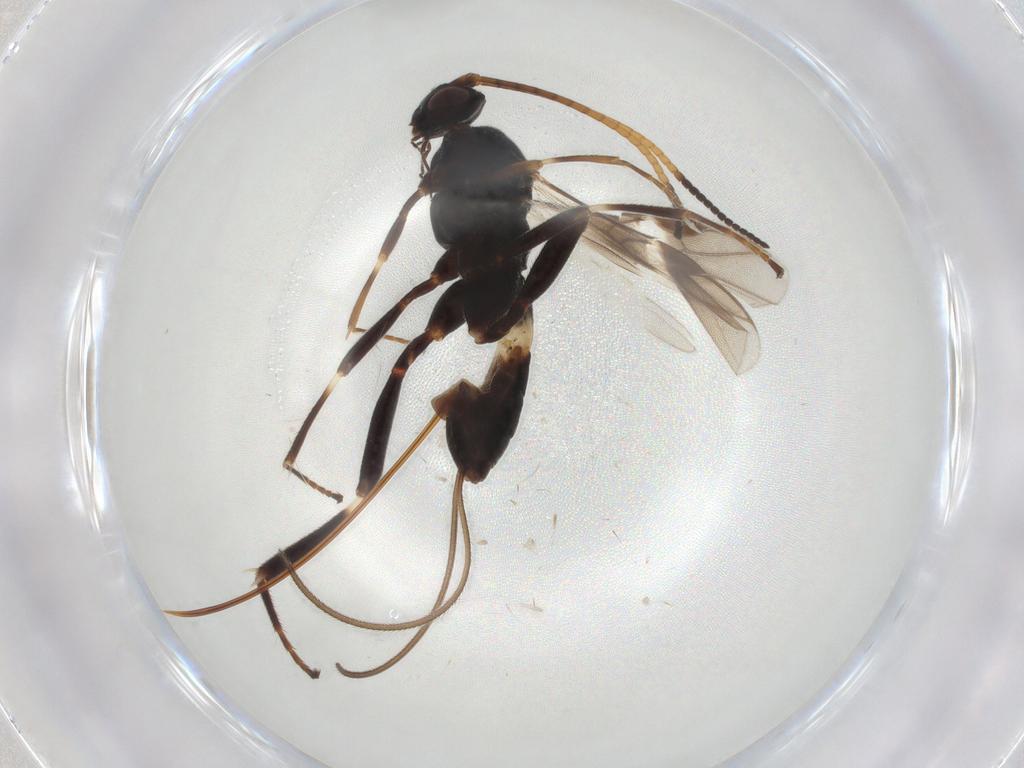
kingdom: Animalia
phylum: Arthropoda
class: Insecta
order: Hymenoptera
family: Braconidae
